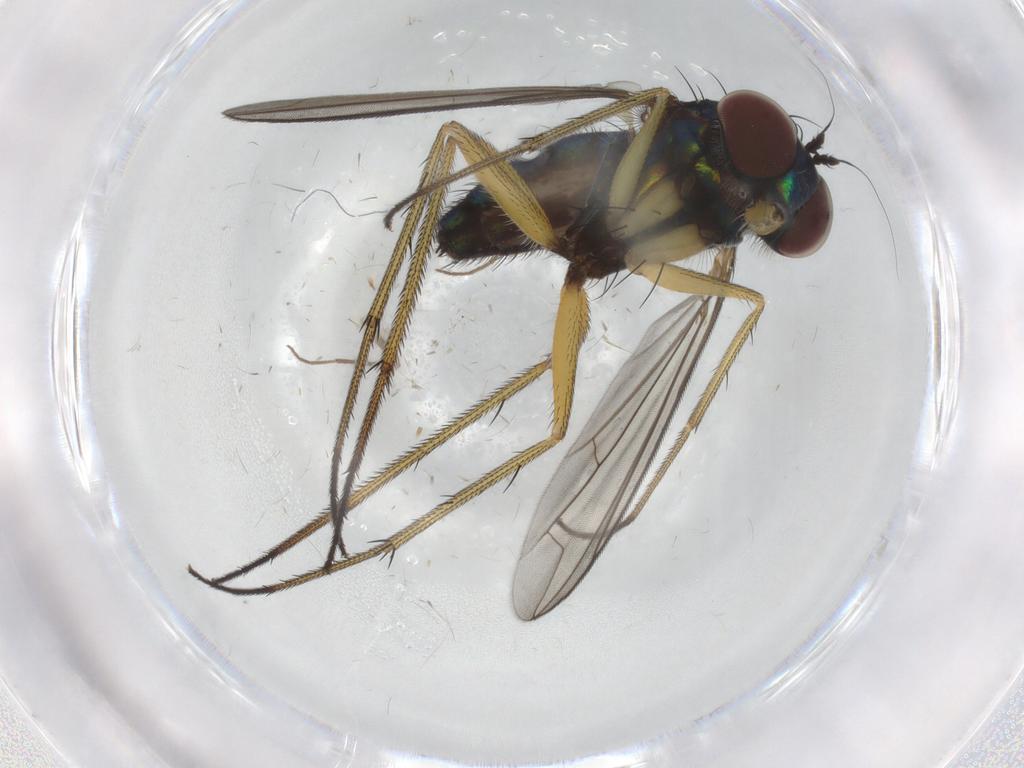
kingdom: Animalia
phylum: Arthropoda
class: Insecta
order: Diptera
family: Dolichopodidae
